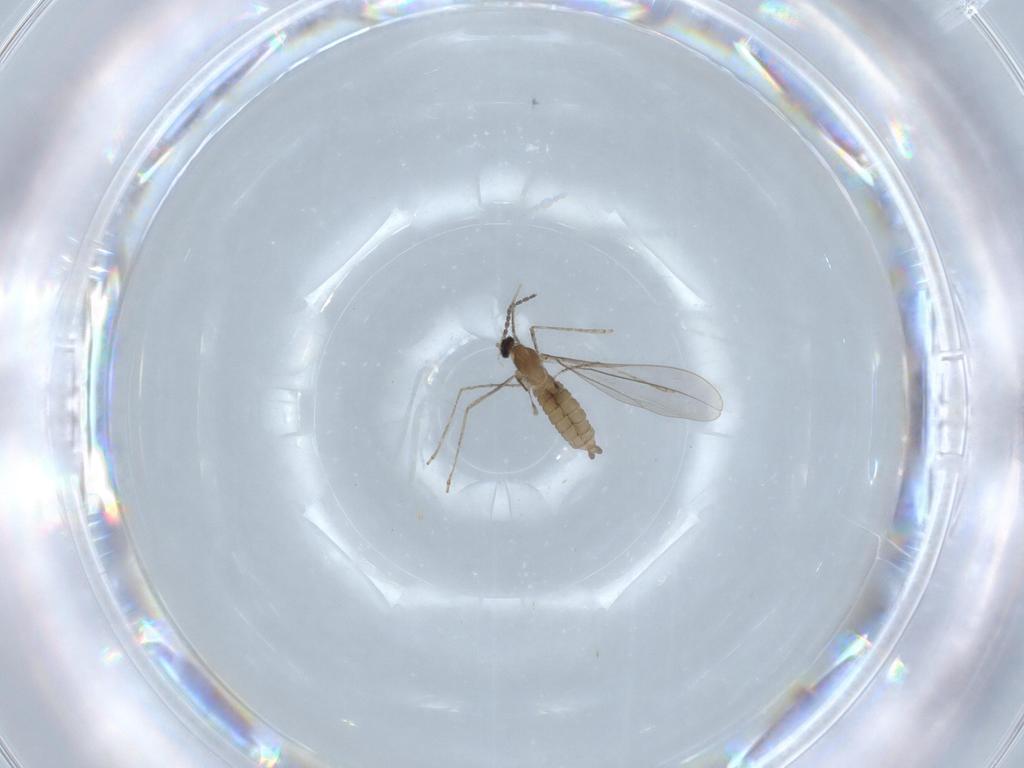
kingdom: Animalia
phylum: Arthropoda
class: Insecta
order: Diptera
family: Cecidomyiidae
